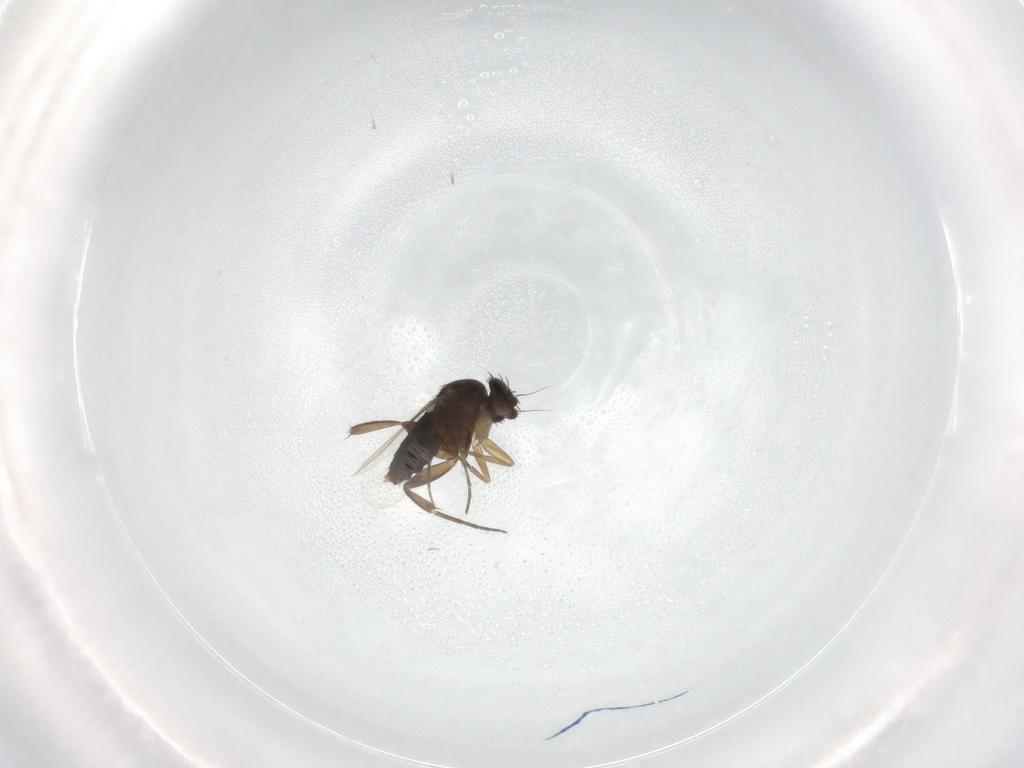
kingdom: Animalia
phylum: Arthropoda
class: Insecta
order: Diptera
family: Phoridae
